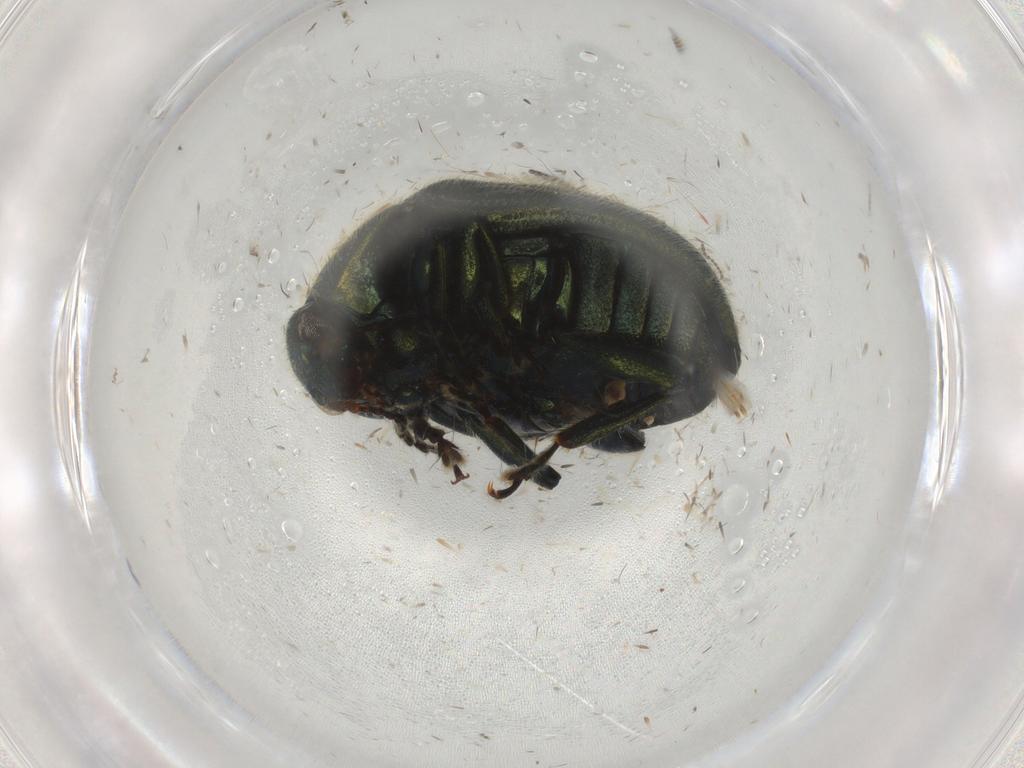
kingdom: Animalia
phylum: Arthropoda
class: Insecta
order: Coleoptera
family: Chrysomelidae
